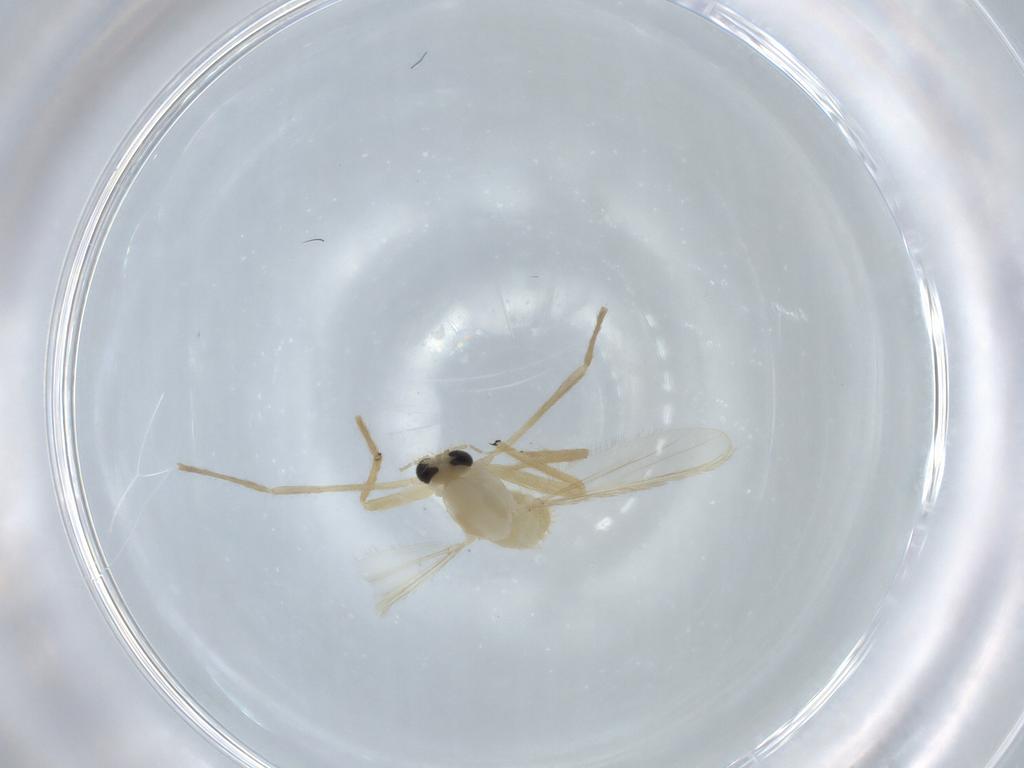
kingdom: Animalia
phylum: Arthropoda
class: Insecta
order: Diptera
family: Chironomidae
